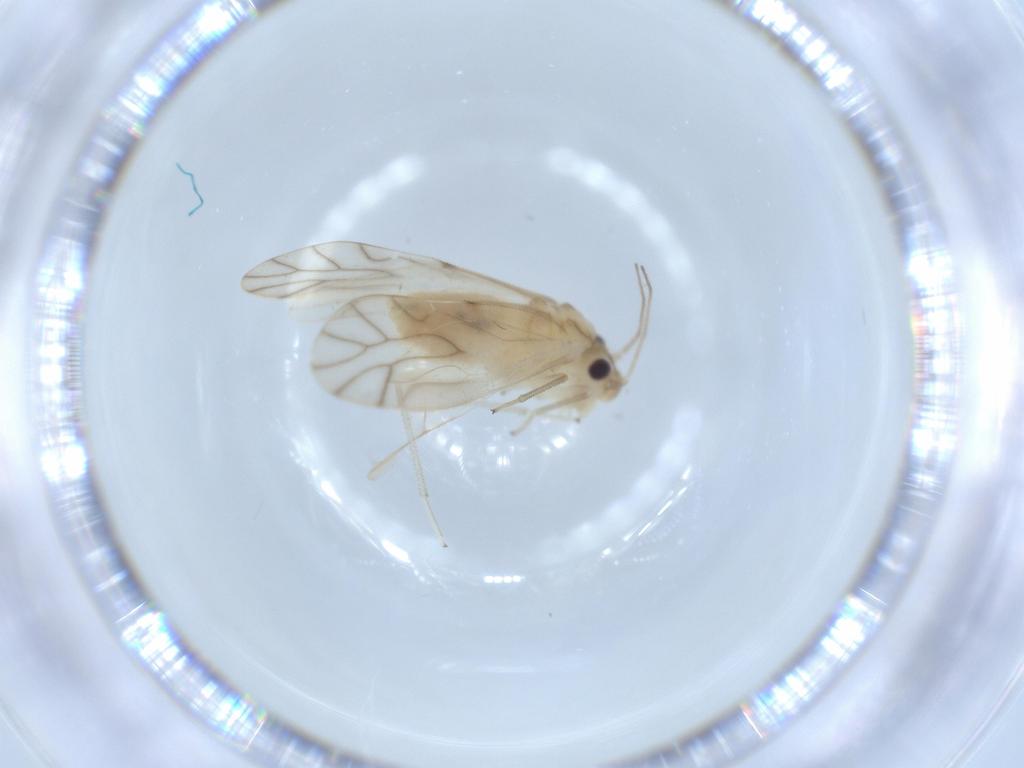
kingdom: Animalia
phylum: Arthropoda
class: Insecta
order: Psocodea
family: Caeciliusidae
